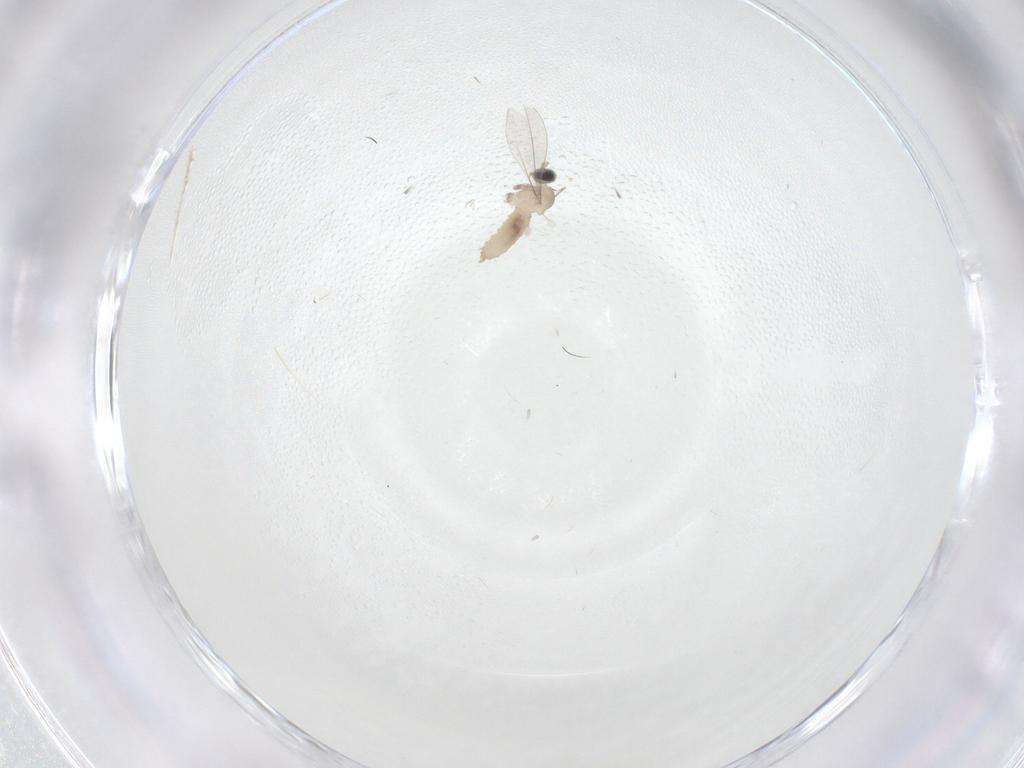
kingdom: Animalia
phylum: Arthropoda
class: Insecta
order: Diptera
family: Cecidomyiidae
